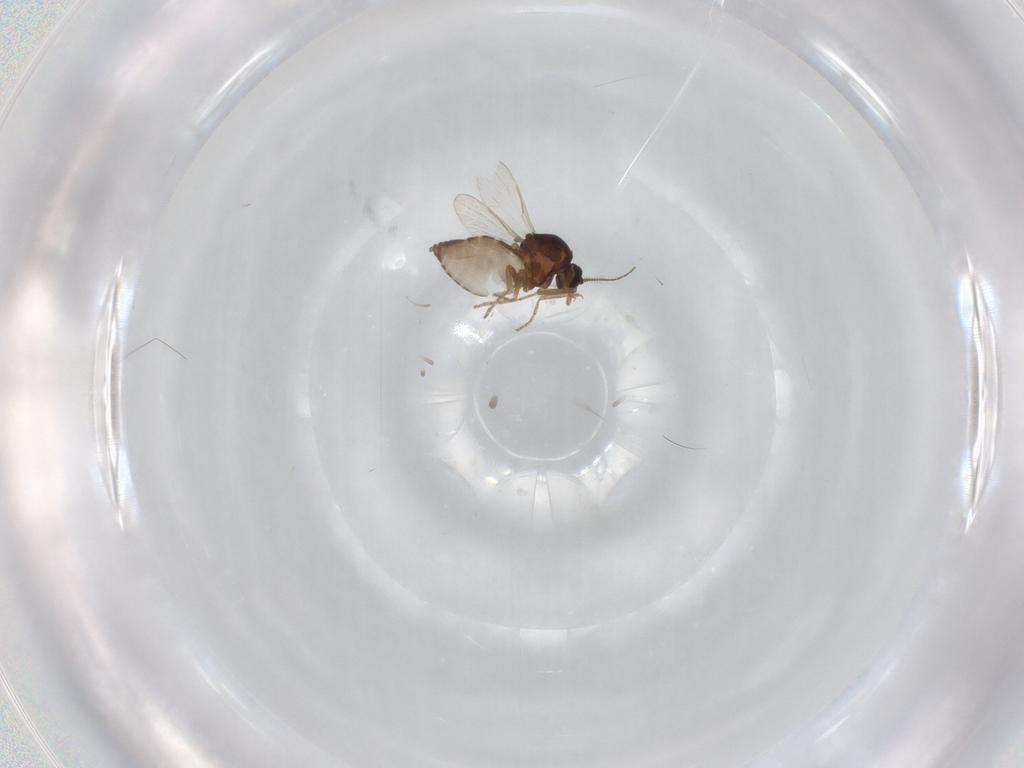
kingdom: Animalia
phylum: Arthropoda
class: Insecta
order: Diptera
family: Ceratopogonidae
